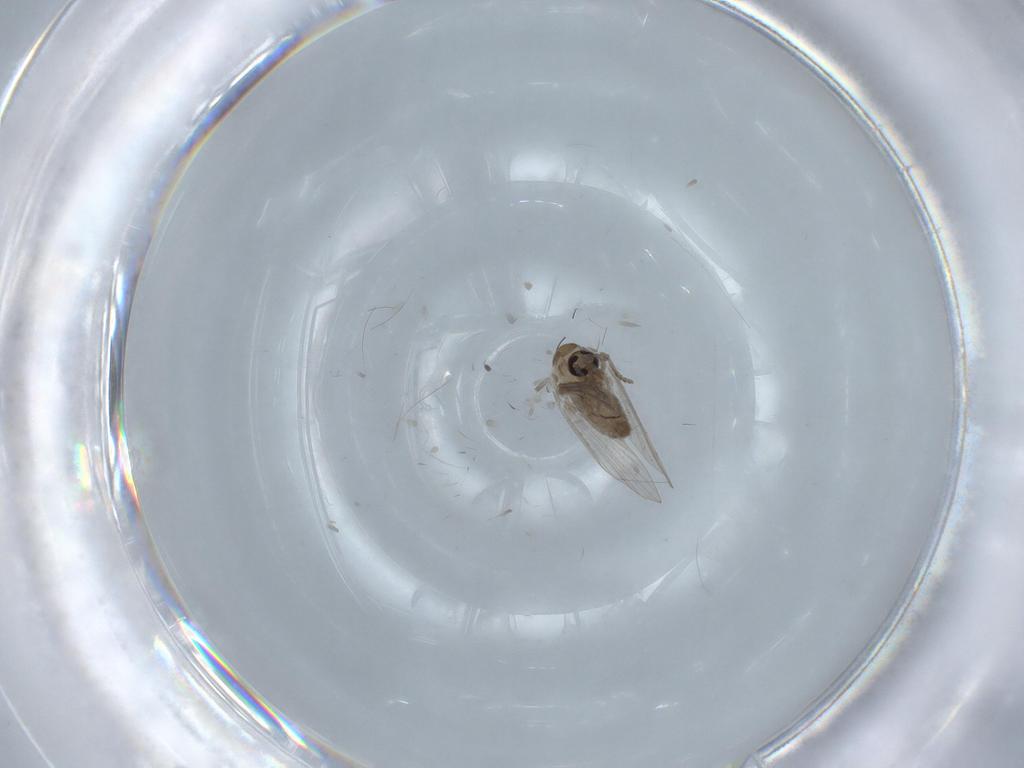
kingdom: Animalia
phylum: Arthropoda
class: Insecta
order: Diptera
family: Psychodidae
